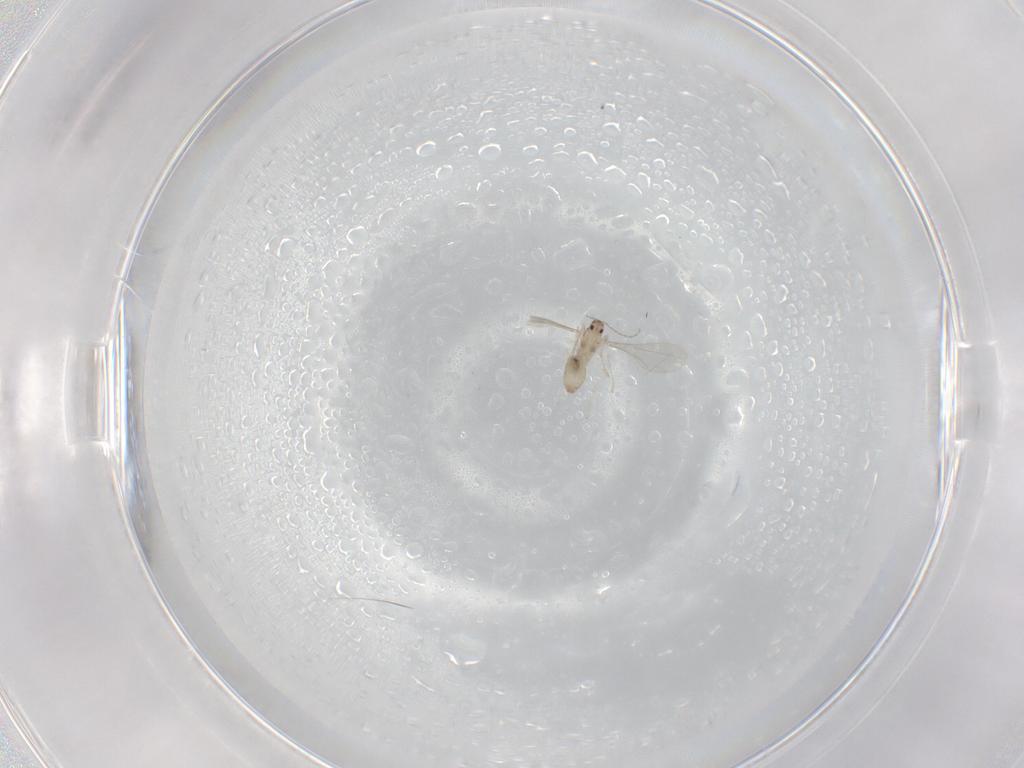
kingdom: Animalia
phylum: Arthropoda
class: Insecta
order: Diptera
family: Cecidomyiidae
